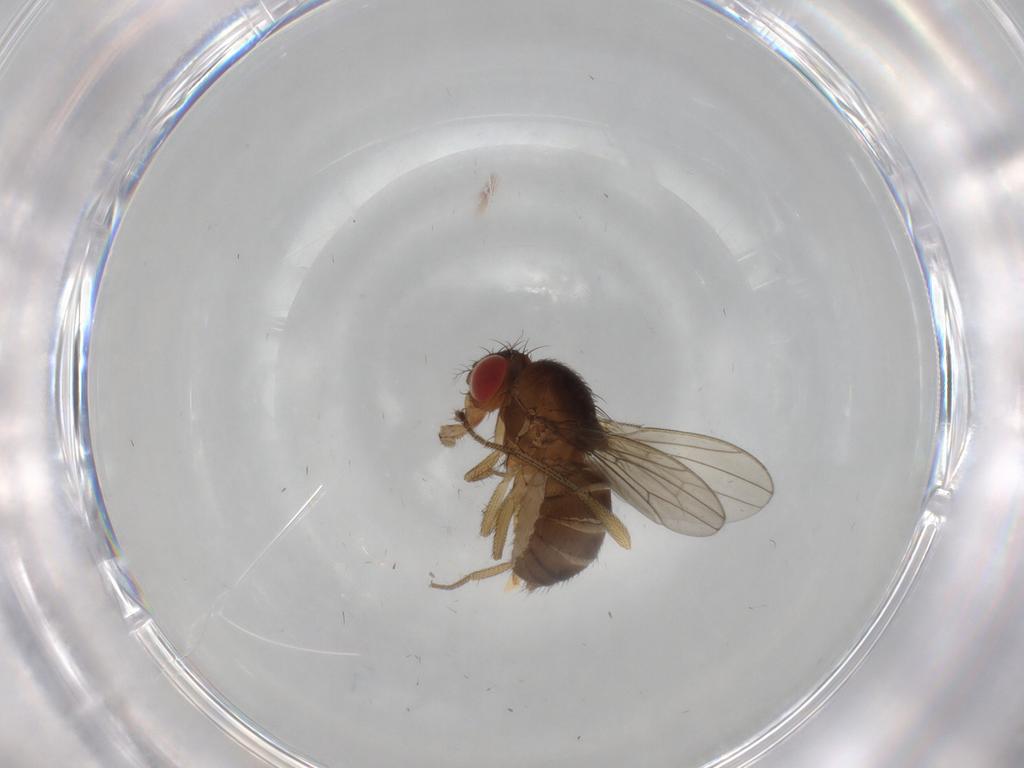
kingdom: Animalia
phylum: Arthropoda
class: Insecta
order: Diptera
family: Drosophilidae
